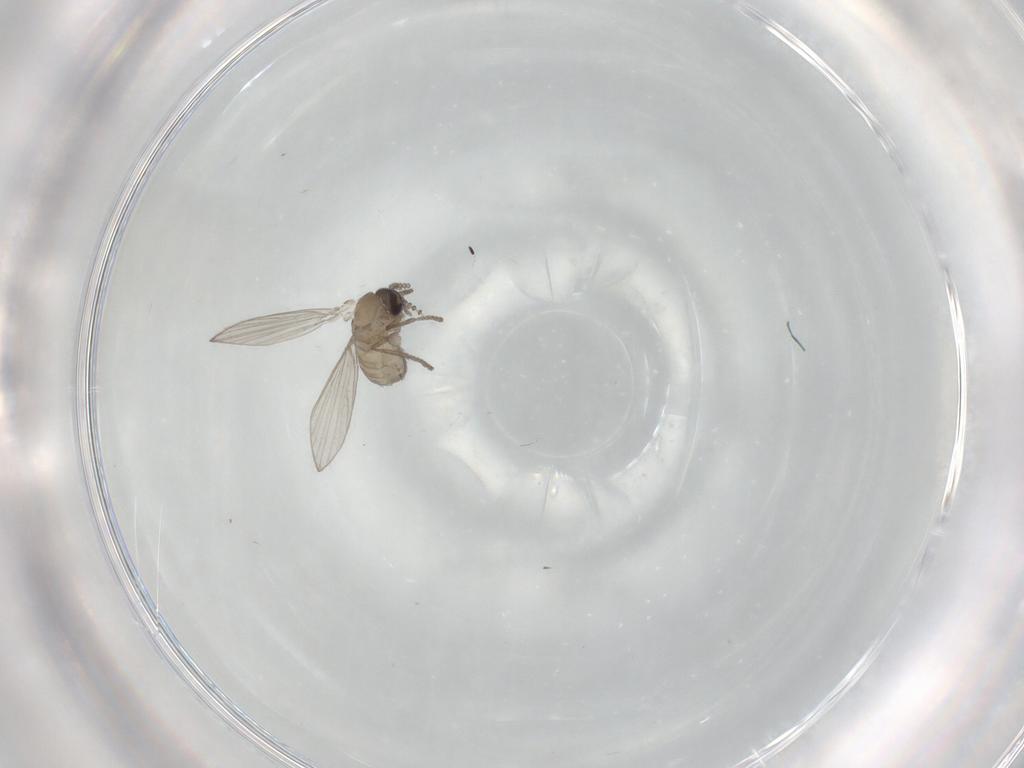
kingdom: Animalia
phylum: Arthropoda
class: Insecta
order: Diptera
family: Psychodidae
